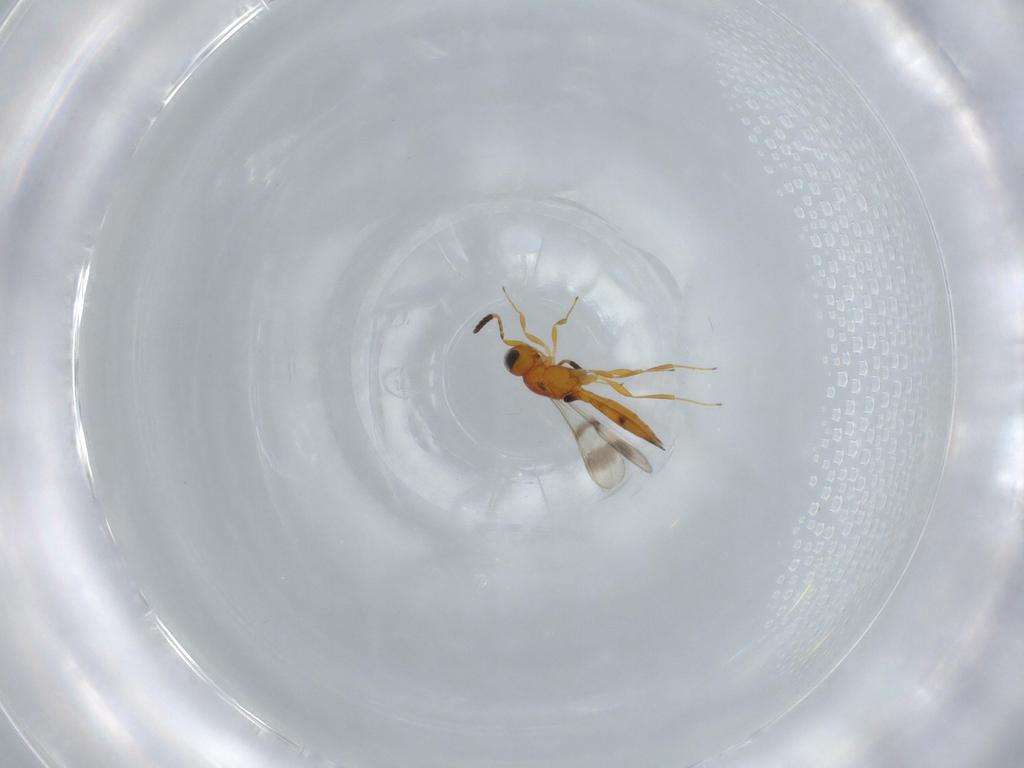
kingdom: Animalia
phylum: Arthropoda
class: Insecta
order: Hymenoptera
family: Scelionidae
